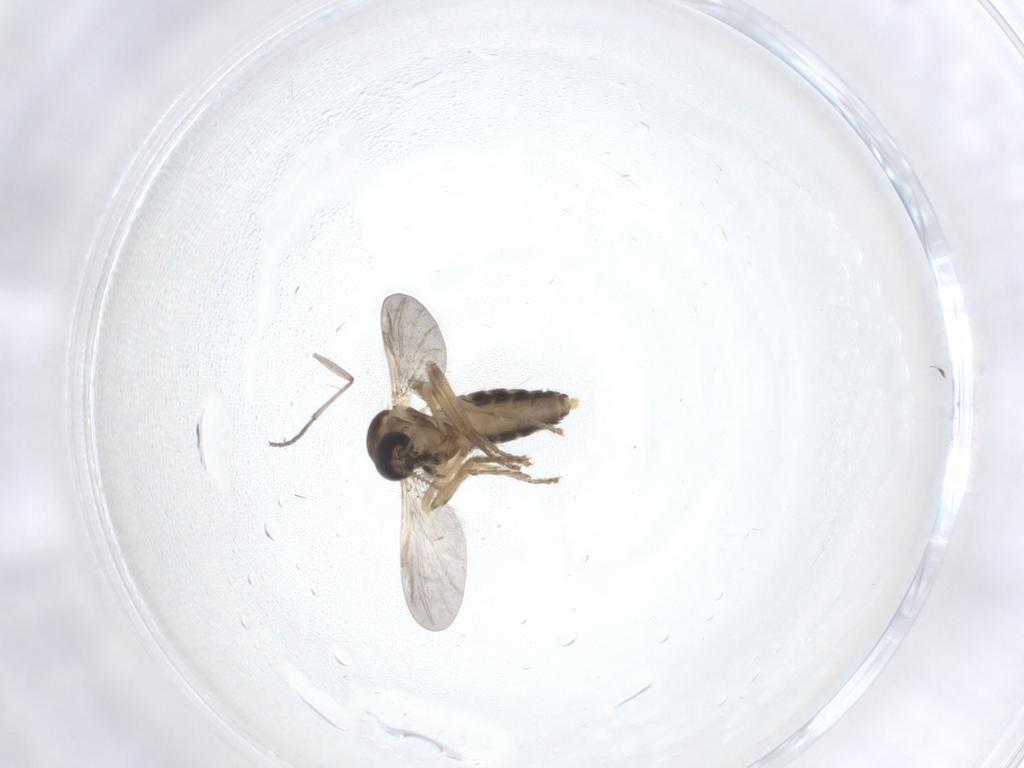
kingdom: Animalia
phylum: Arthropoda
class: Insecta
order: Diptera
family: Ceratopogonidae
